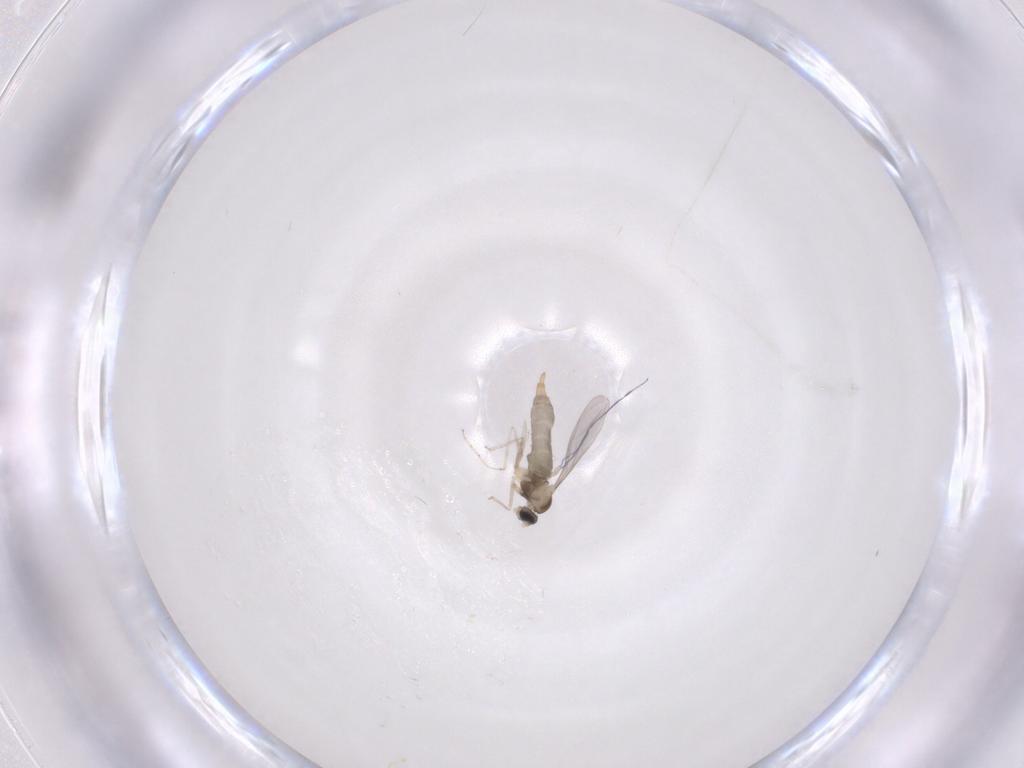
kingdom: Animalia
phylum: Arthropoda
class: Insecta
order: Diptera
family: Cecidomyiidae
